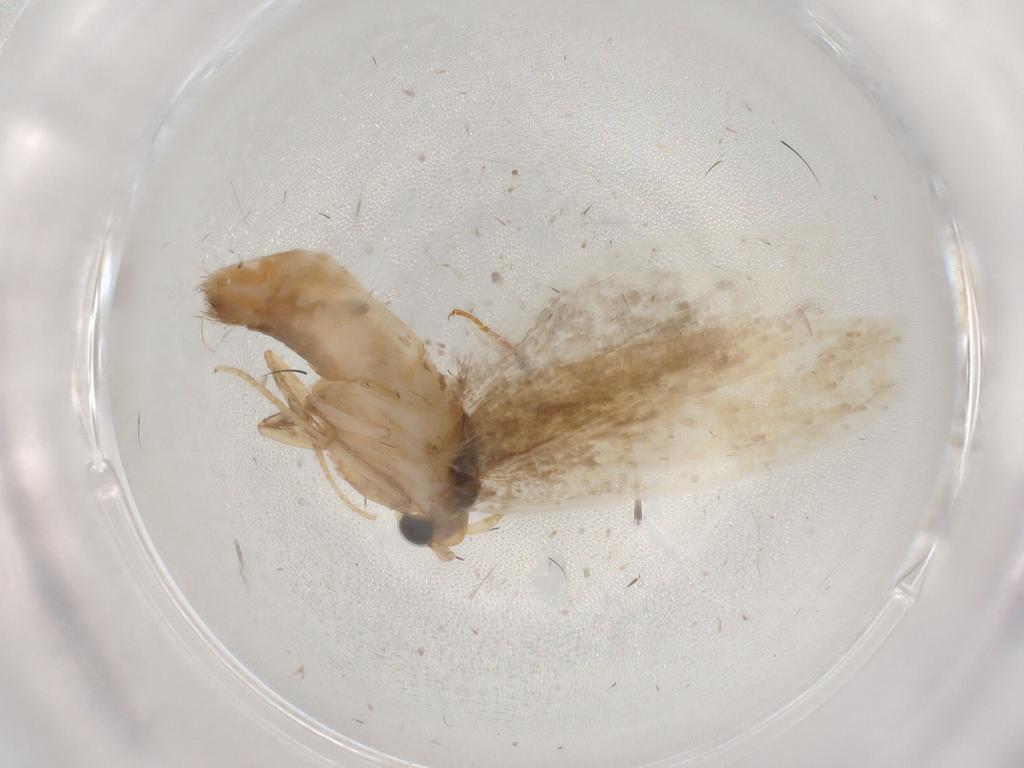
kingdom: Animalia
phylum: Arthropoda
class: Insecta
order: Lepidoptera
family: Tineidae
